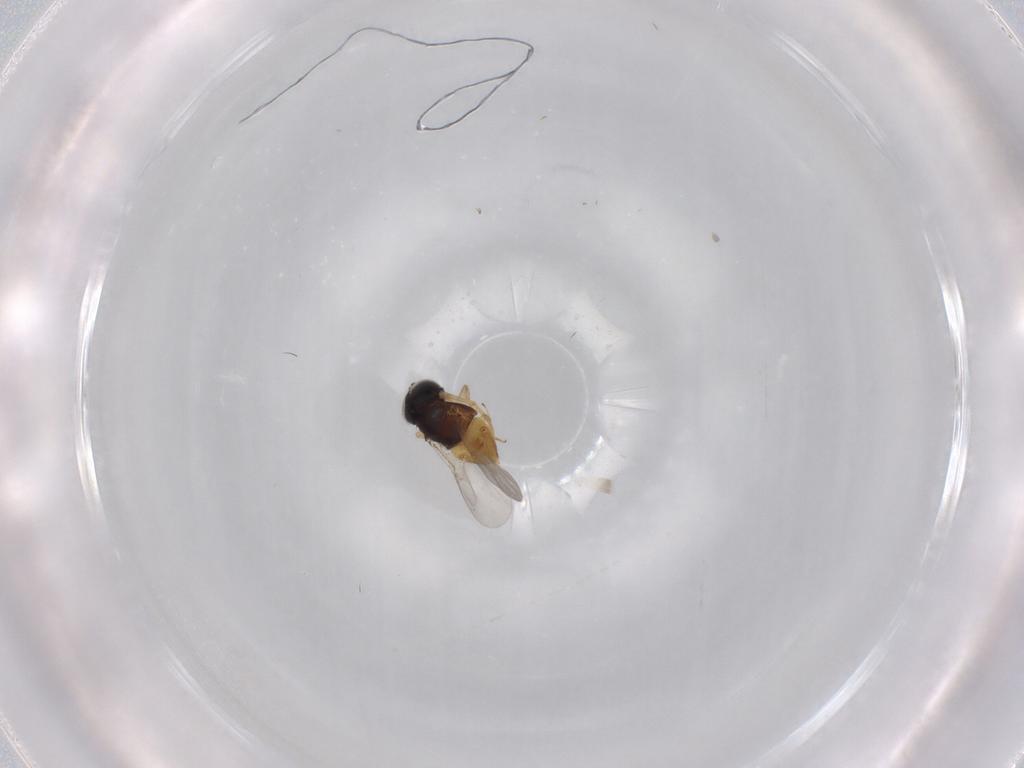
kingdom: Animalia
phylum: Arthropoda
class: Insecta
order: Hymenoptera
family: Encyrtidae
